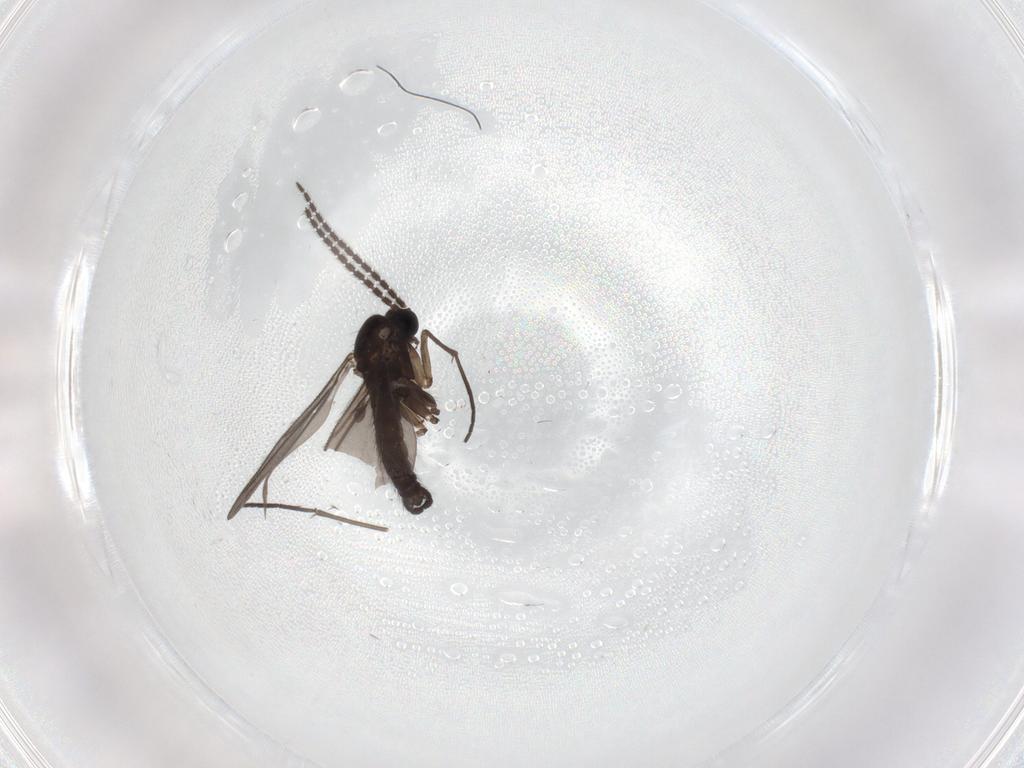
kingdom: Animalia
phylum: Arthropoda
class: Insecta
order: Diptera
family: Sciaridae
